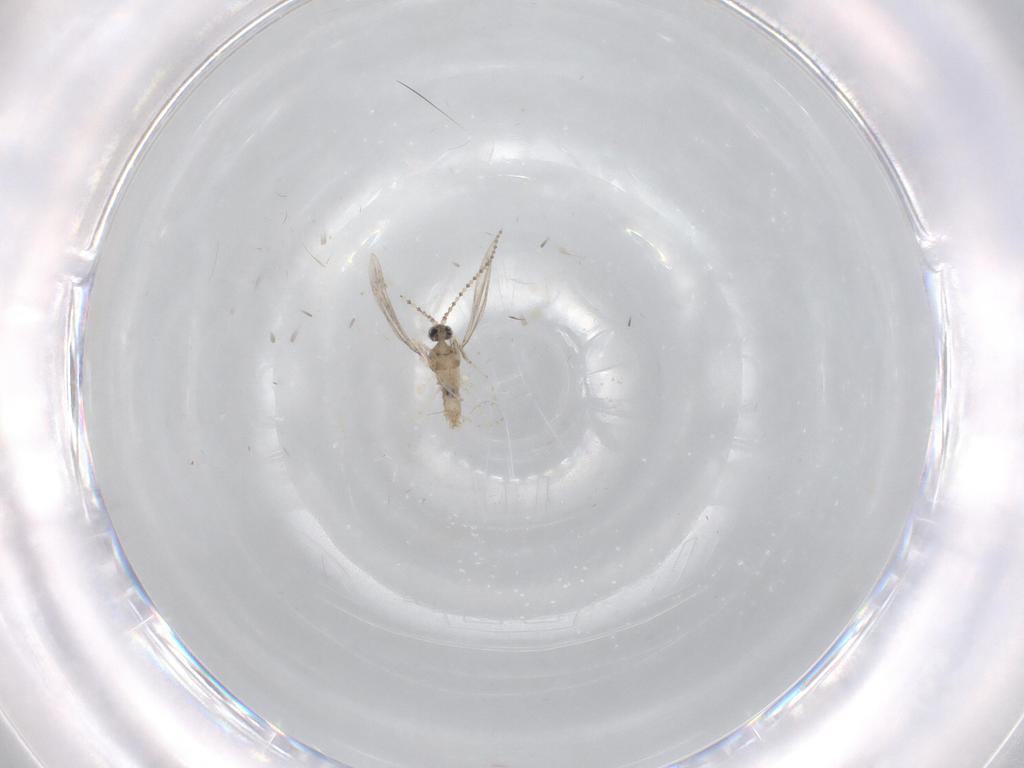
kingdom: Animalia
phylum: Arthropoda
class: Insecta
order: Diptera
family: Cecidomyiidae
